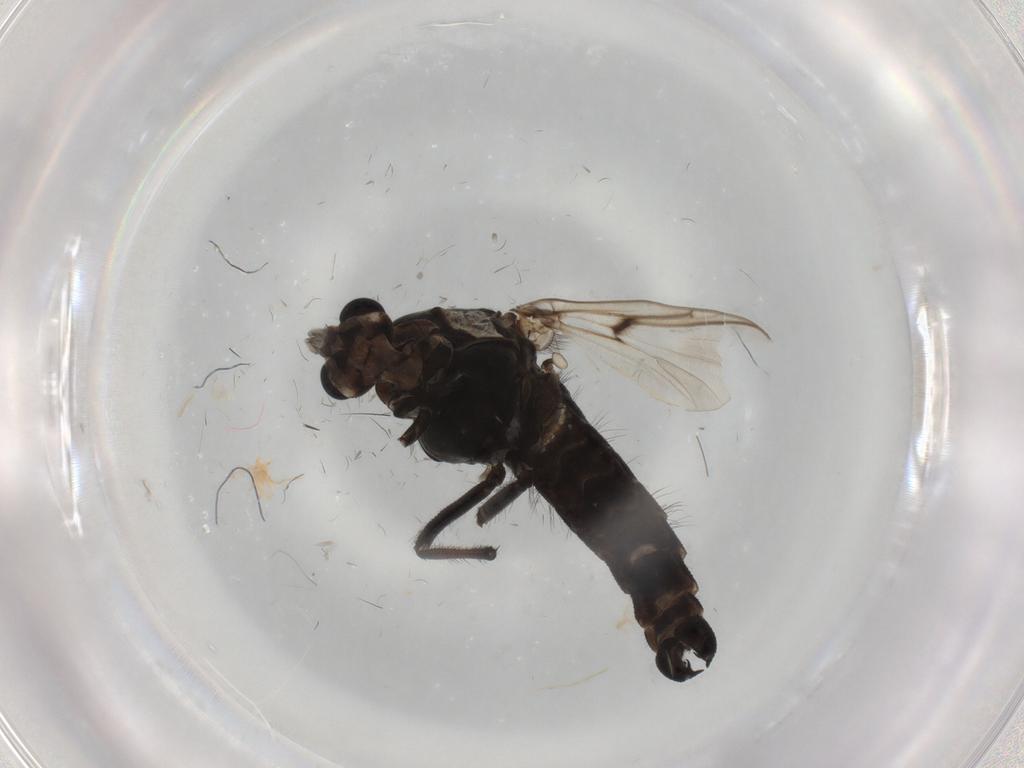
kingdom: Animalia
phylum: Arthropoda
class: Insecta
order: Diptera
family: Chironomidae
